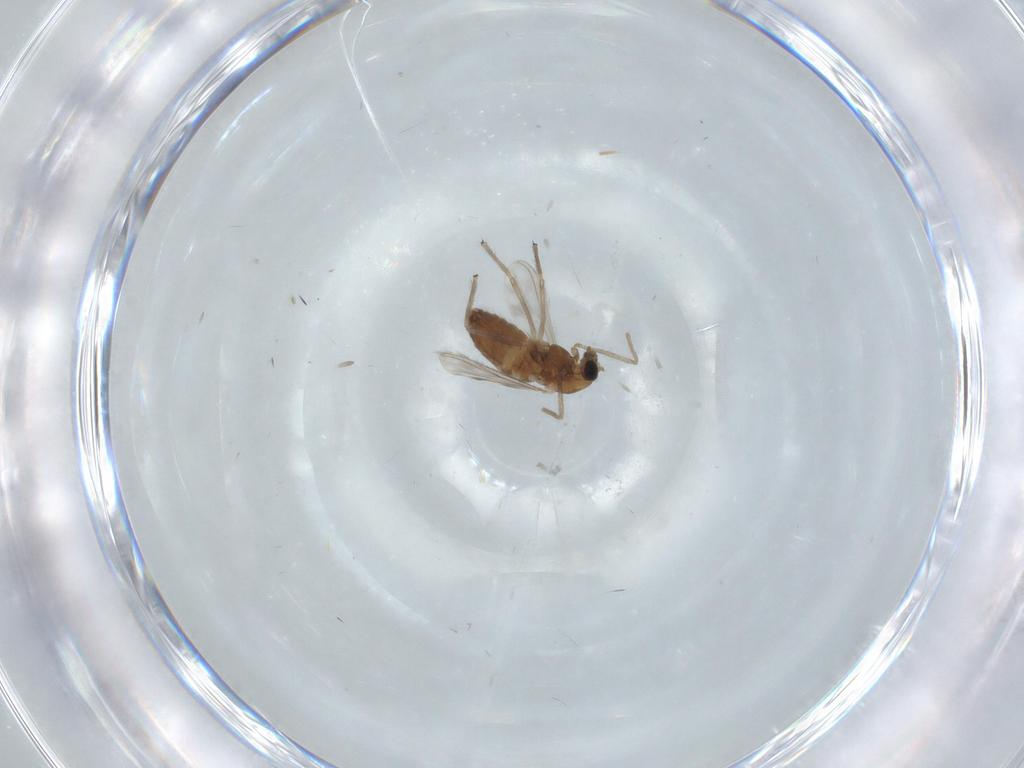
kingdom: Animalia
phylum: Arthropoda
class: Insecta
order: Diptera
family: Chironomidae
